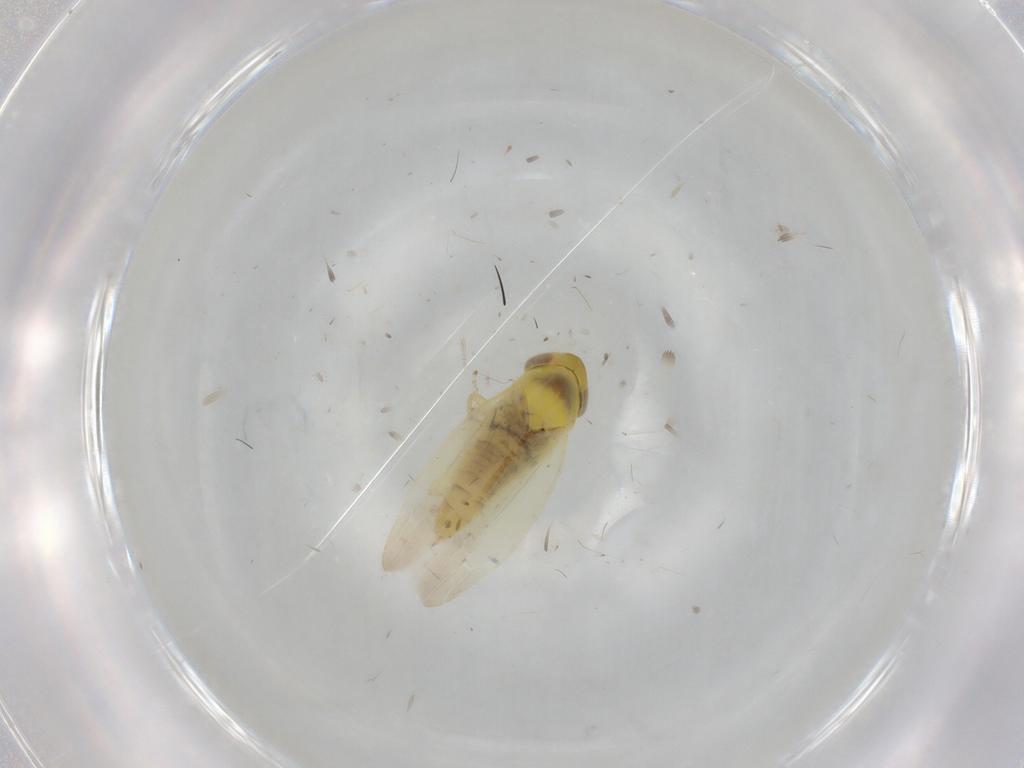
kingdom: Animalia
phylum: Arthropoda
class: Insecta
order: Hemiptera
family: Cicadellidae
